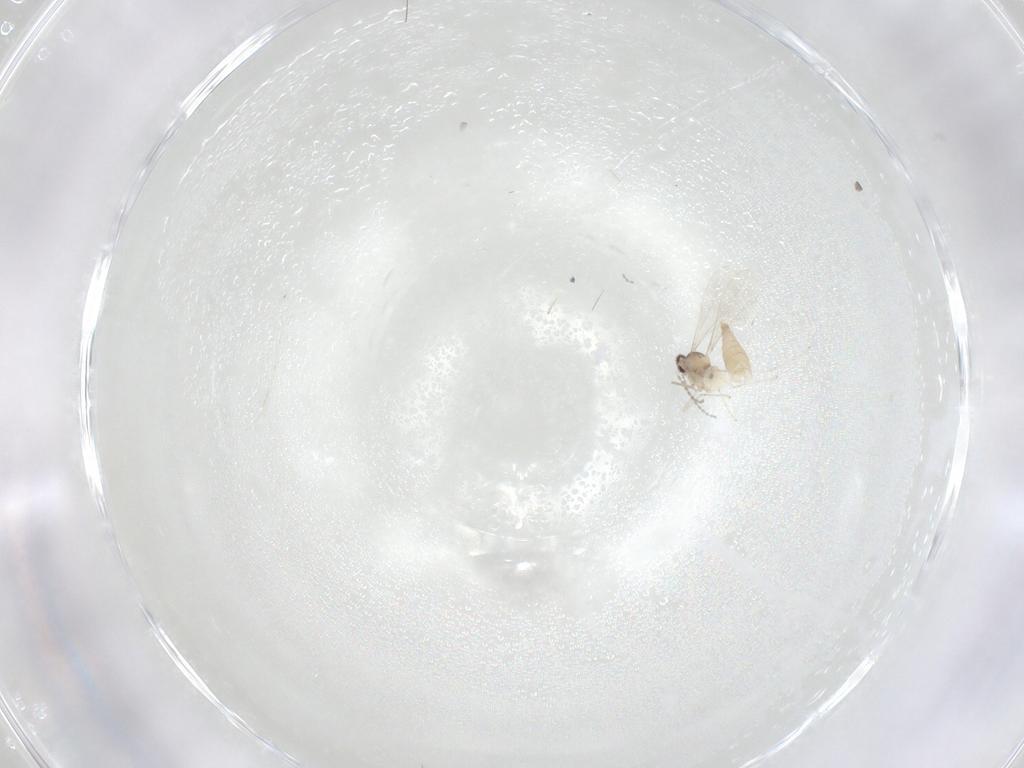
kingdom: Animalia
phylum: Arthropoda
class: Insecta
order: Diptera
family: Cecidomyiidae
